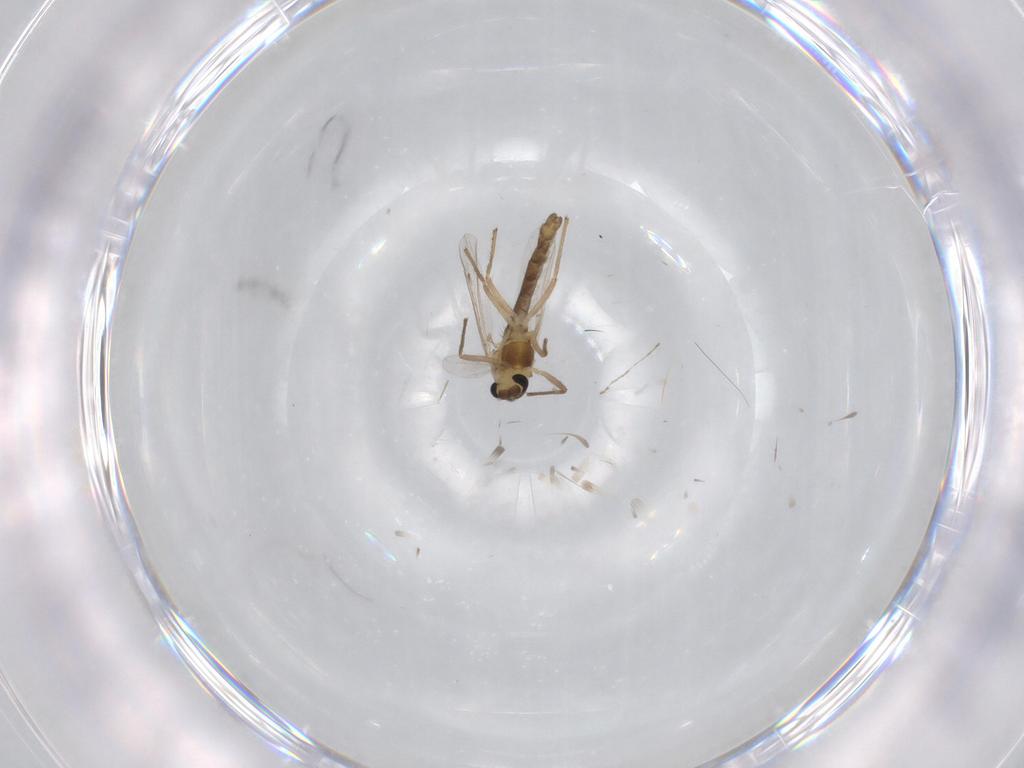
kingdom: Animalia
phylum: Arthropoda
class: Insecta
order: Diptera
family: Chironomidae
